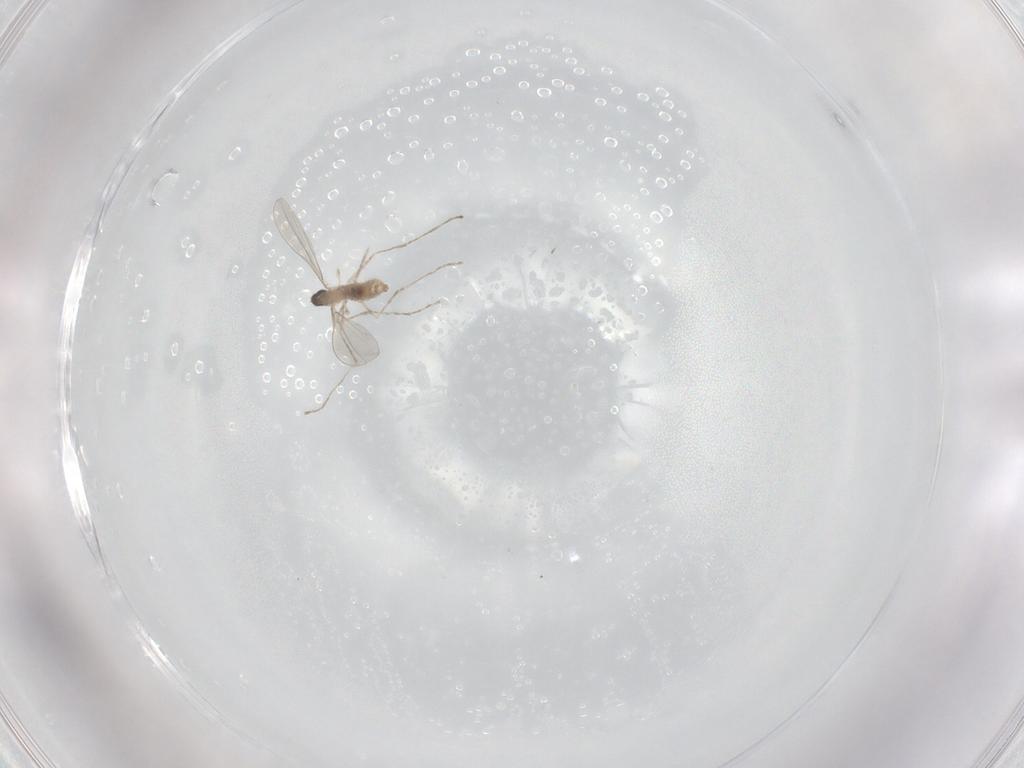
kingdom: Animalia
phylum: Arthropoda
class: Insecta
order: Diptera
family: Cecidomyiidae
